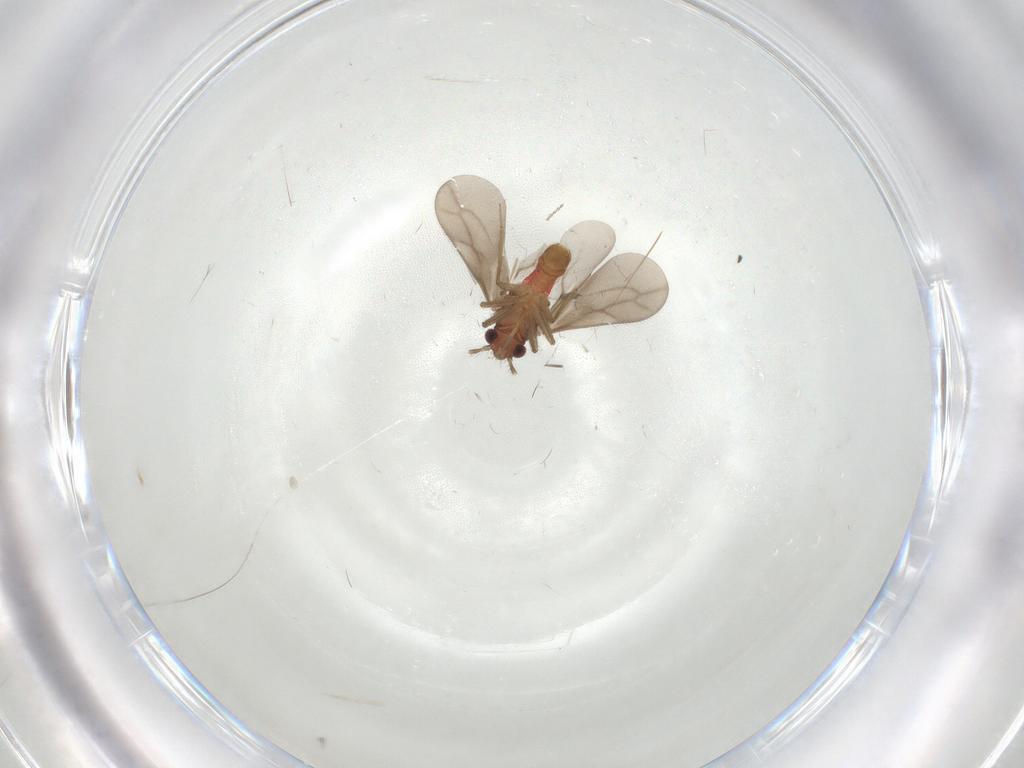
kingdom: Animalia
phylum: Arthropoda
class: Insecta
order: Hemiptera
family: Ceratocombidae
